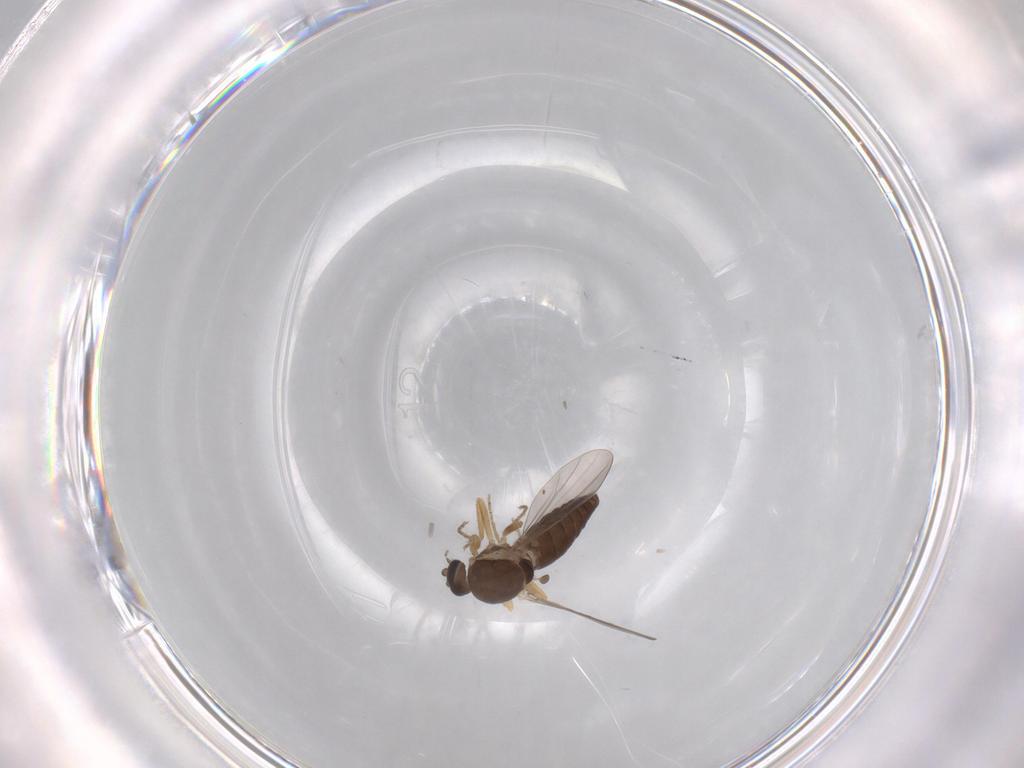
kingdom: Animalia
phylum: Arthropoda
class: Insecta
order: Diptera
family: Ceratopogonidae
